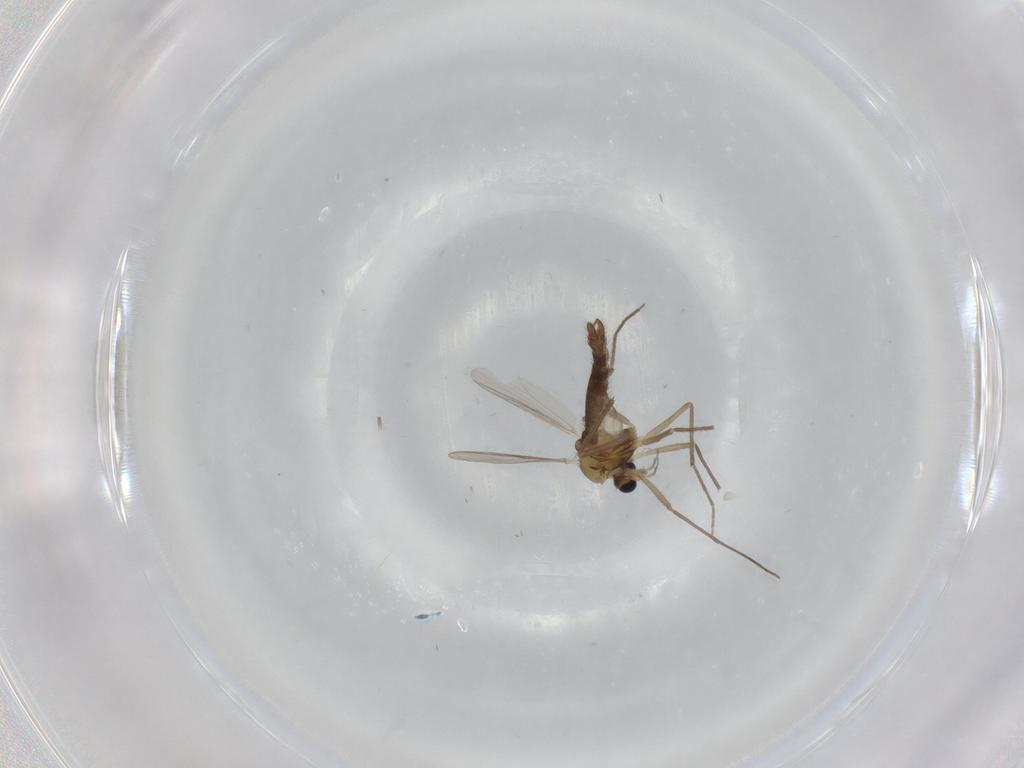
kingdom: Animalia
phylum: Arthropoda
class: Insecta
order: Diptera
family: Chironomidae
